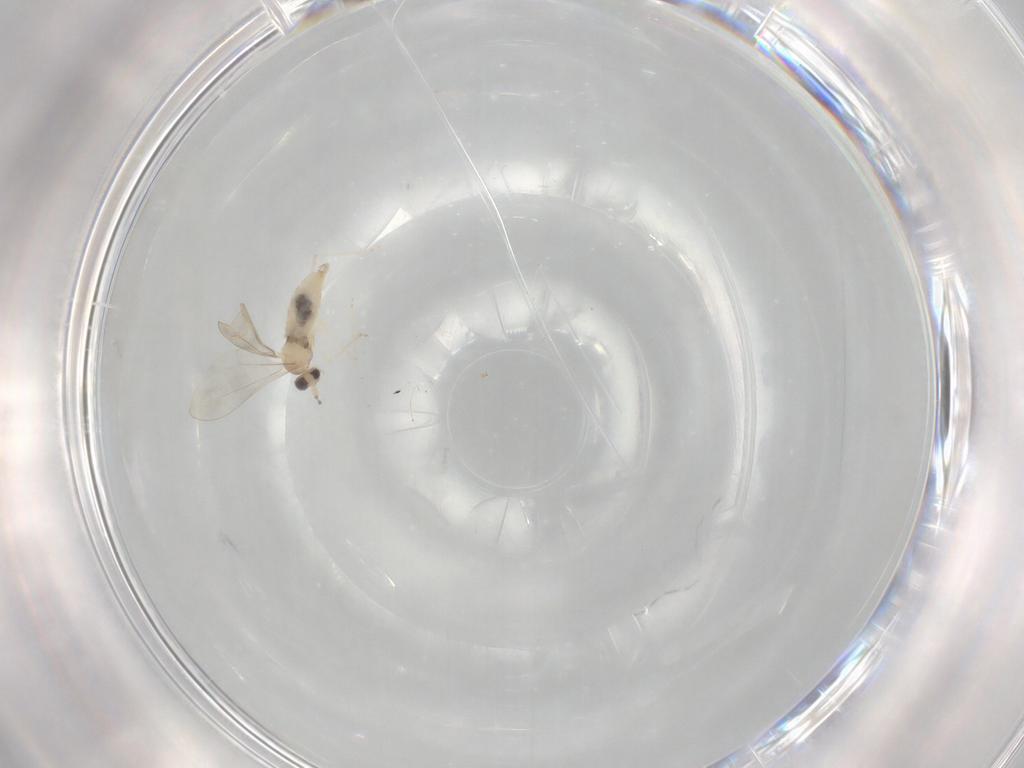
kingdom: Animalia
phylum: Arthropoda
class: Insecta
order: Diptera
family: Cecidomyiidae
